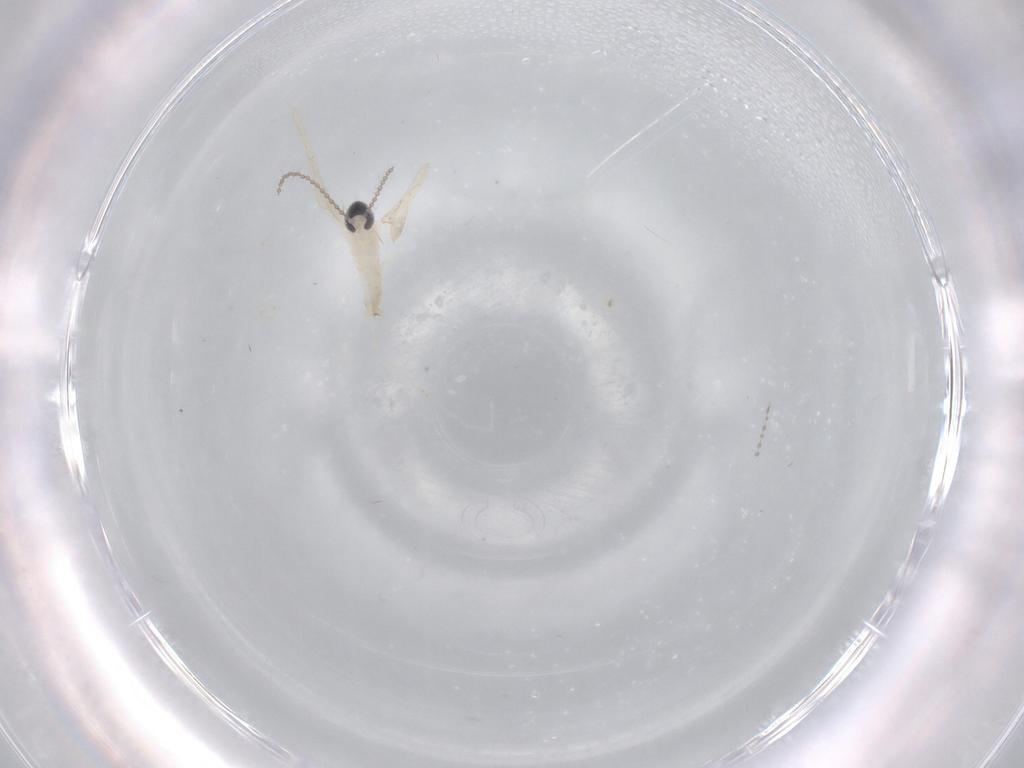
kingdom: Animalia
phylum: Arthropoda
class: Insecta
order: Diptera
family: Cecidomyiidae
